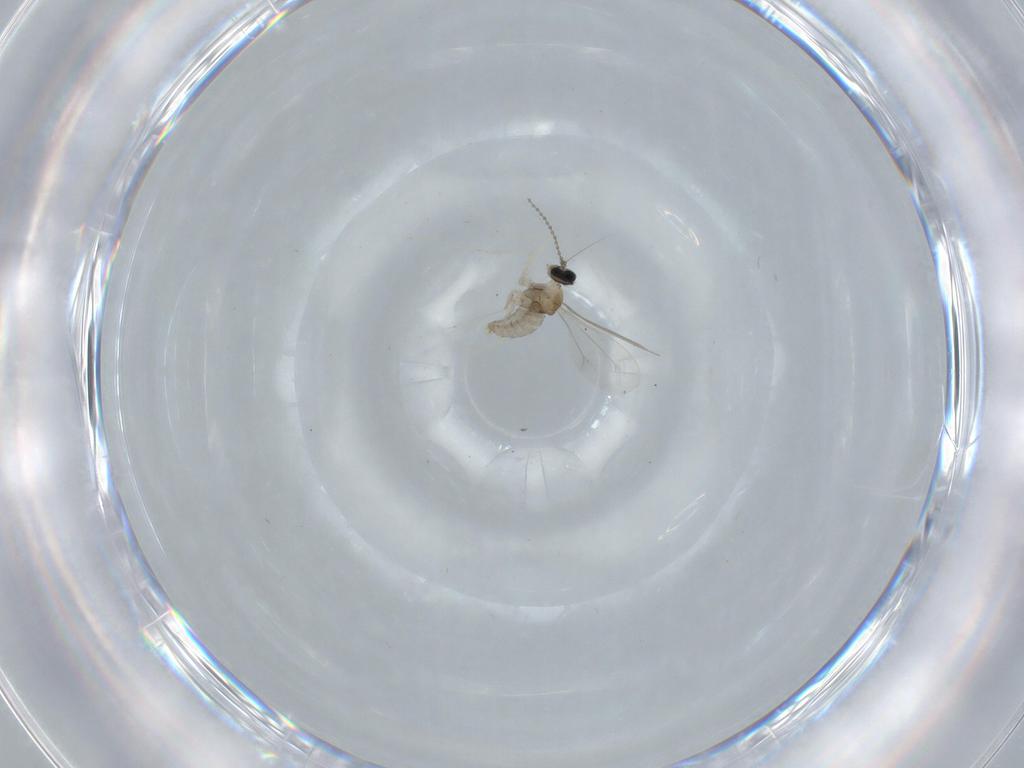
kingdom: Animalia
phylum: Arthropoda
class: Insecta
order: Diptera
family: Cecidomyiidae
